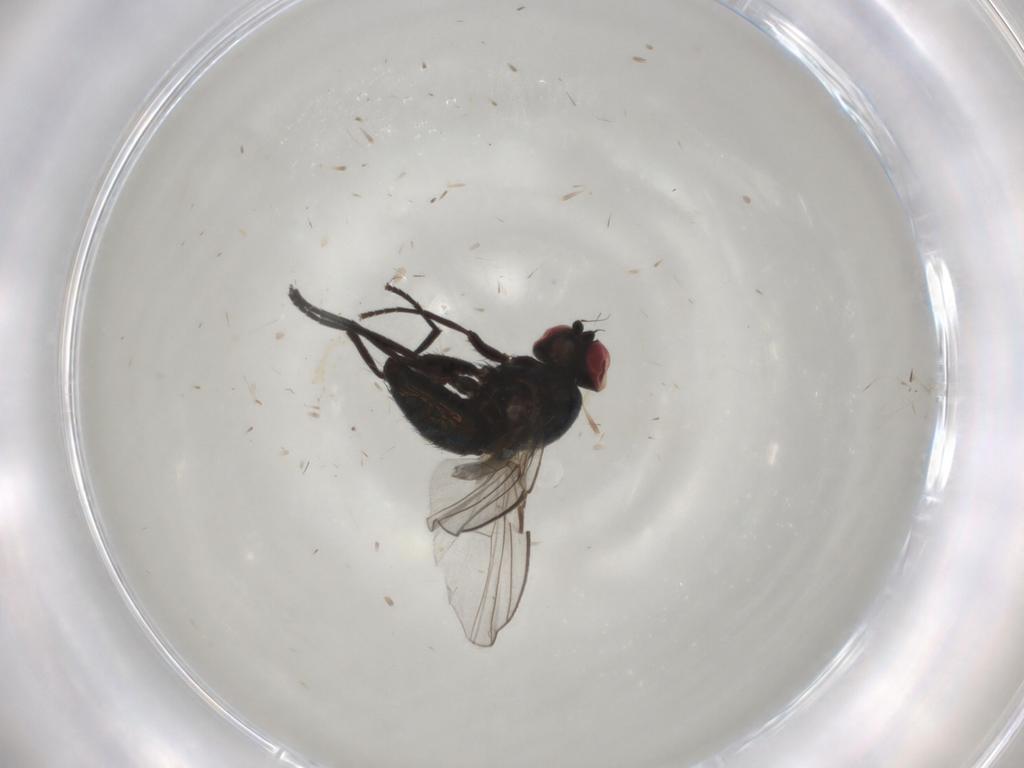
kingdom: Animalia
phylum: Arthropoda
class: Insecta
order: Diptera
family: Agromyzidae
